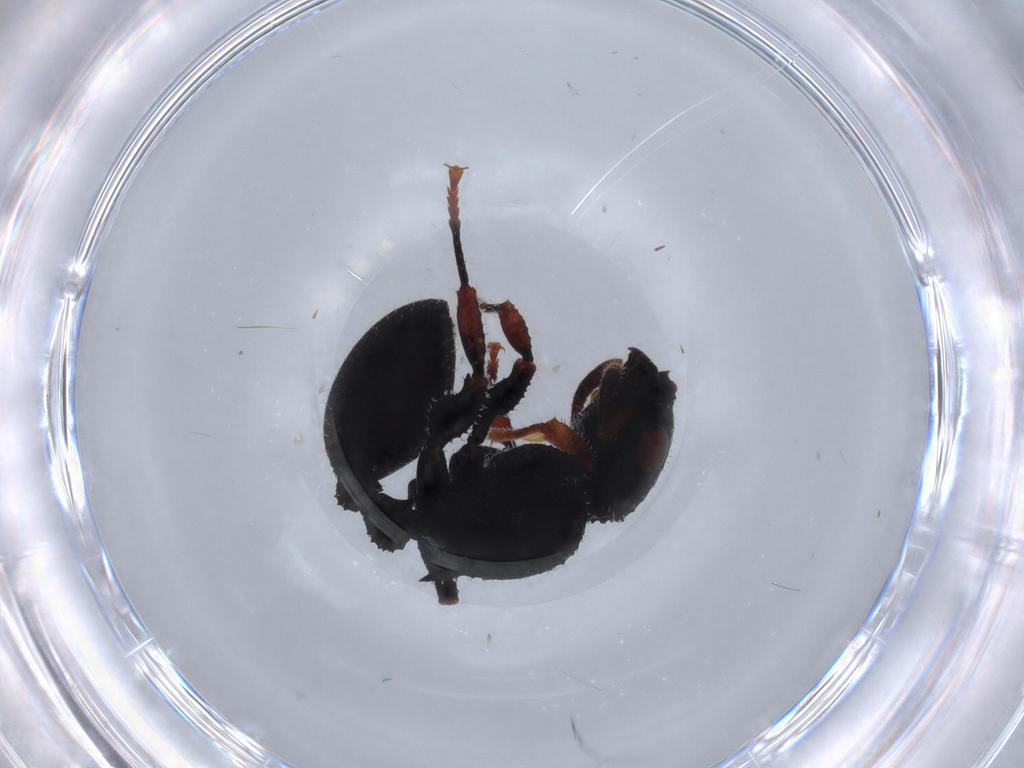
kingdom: Animalia
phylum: Arthropoda
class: Insecta
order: Hymenoptera
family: Formicidae
